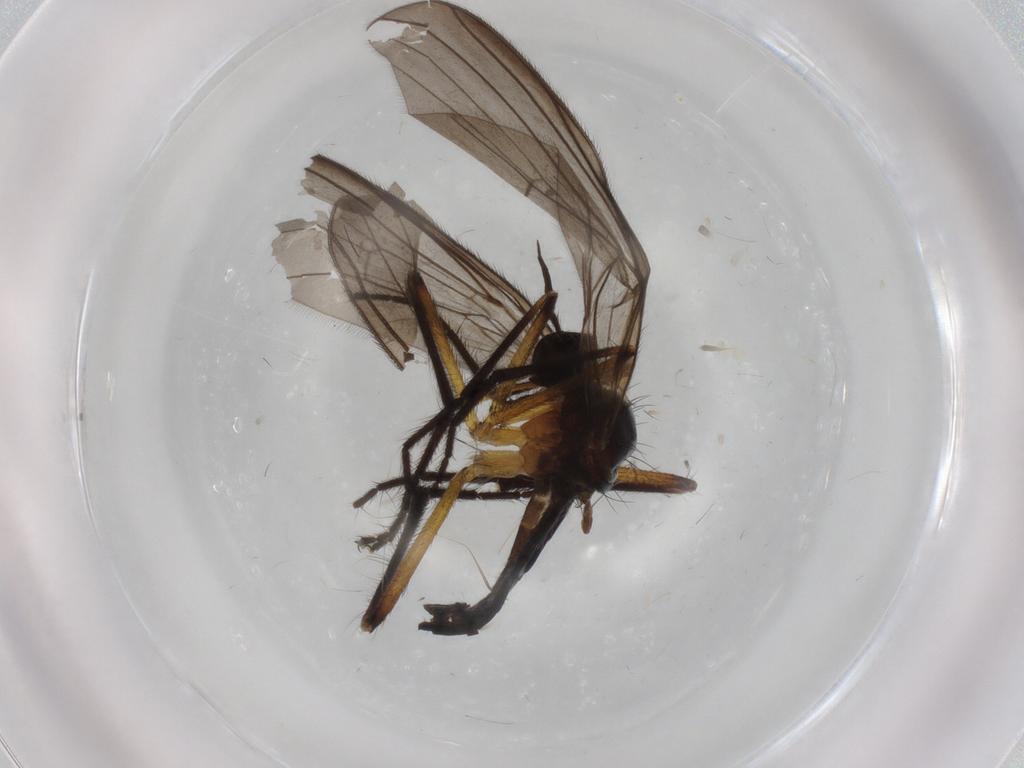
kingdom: Animalia
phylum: Arthropoda
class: Insecta
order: Diptera
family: Empididae
